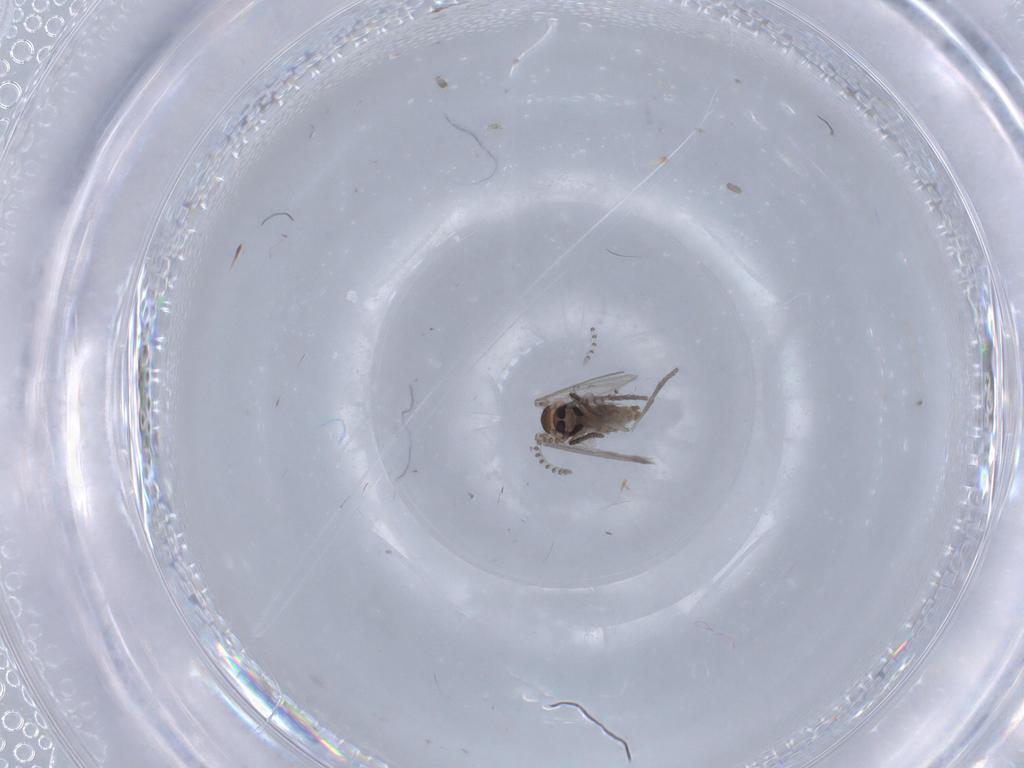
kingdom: Animalia
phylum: Arthropoda
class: Insecta
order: Diptera
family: Psychodidae
